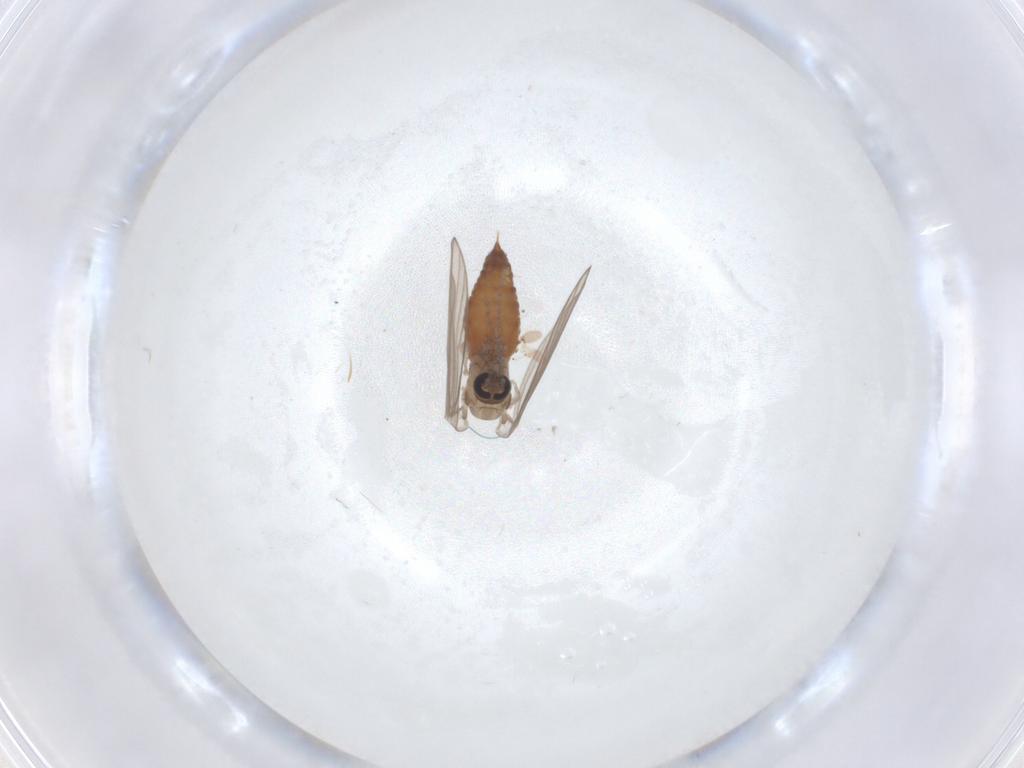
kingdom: Animalia
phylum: Arthropoda
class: Insecta
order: Diptera
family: Psychodidae
